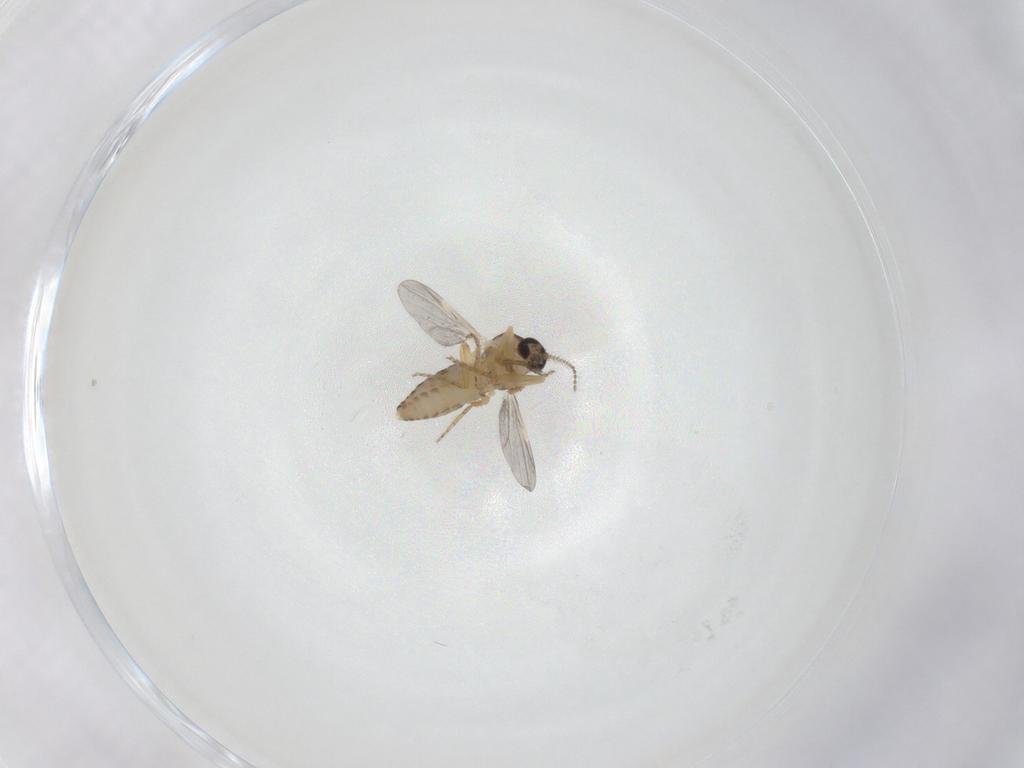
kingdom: Animalia
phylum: Arthropoda
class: Insecta
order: Diptera
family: Ceratopogonidae
